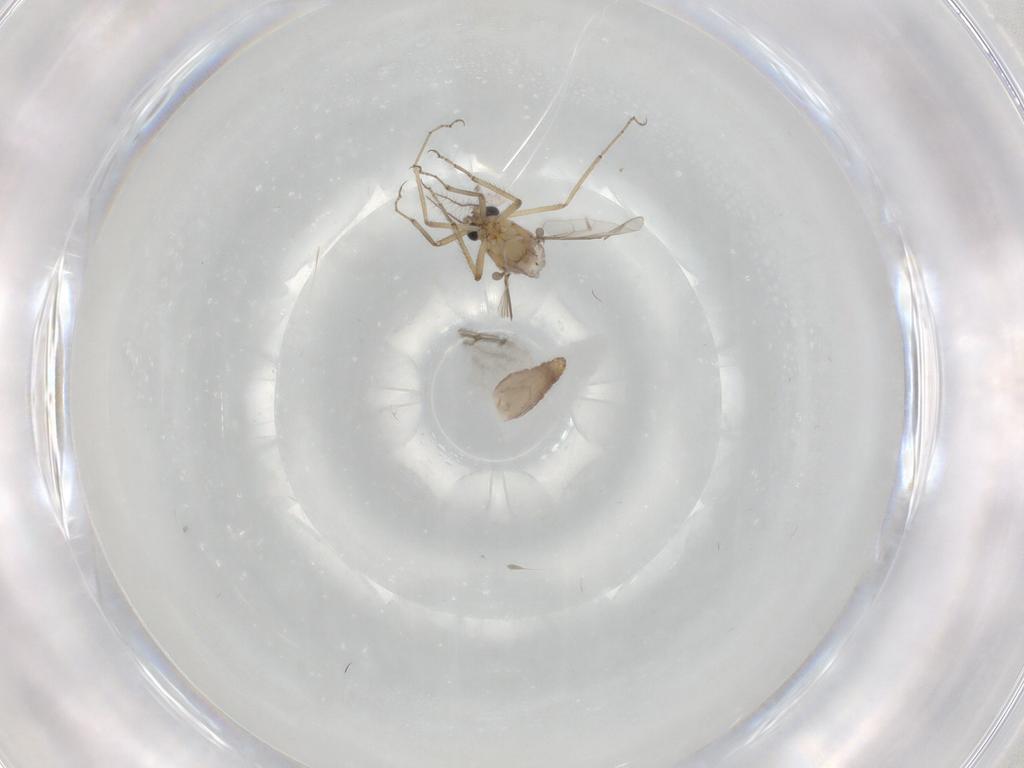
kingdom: Animalia
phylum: Arthropoda
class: Insecta
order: Diptera
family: Ceratopogonidae
